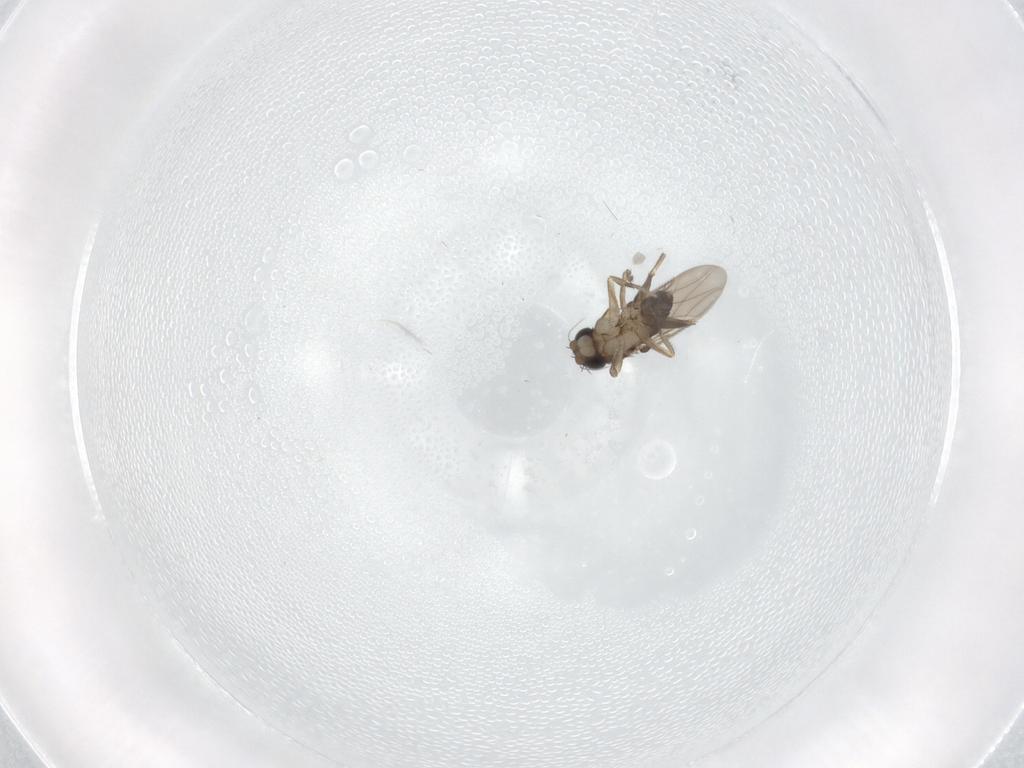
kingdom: Animalia
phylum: Arthropoda
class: Insecta
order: Diptera
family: Phoridae
